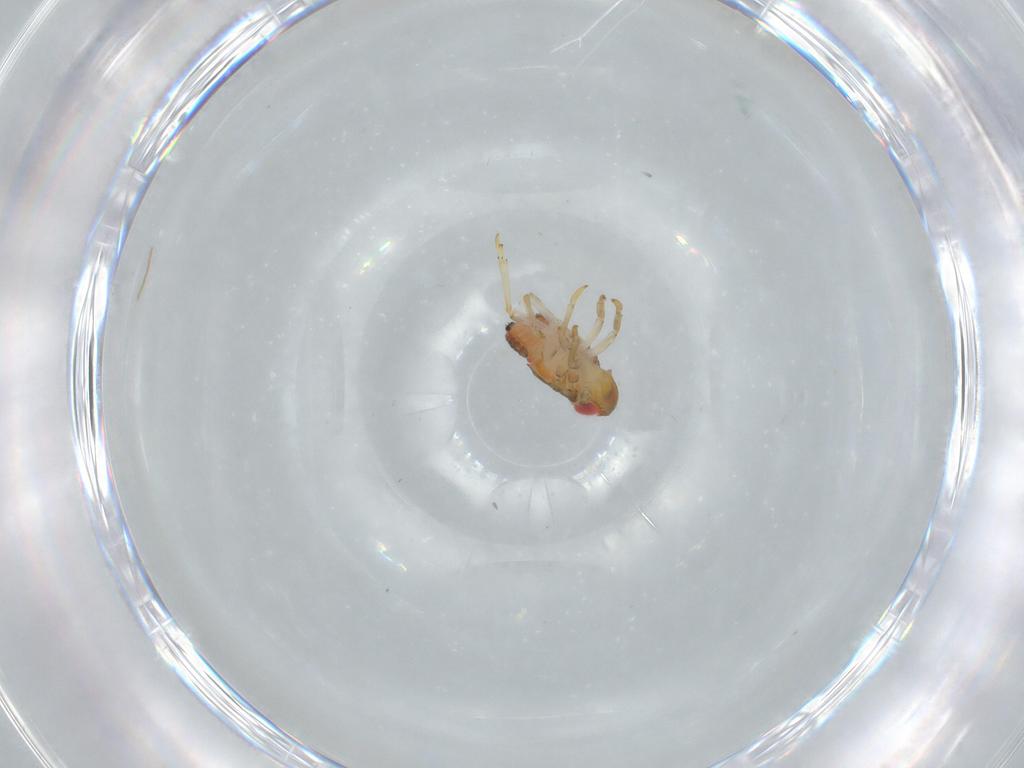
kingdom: Animalia
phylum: Arthropoda
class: Insecta
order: Hemiptera
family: Issidae
